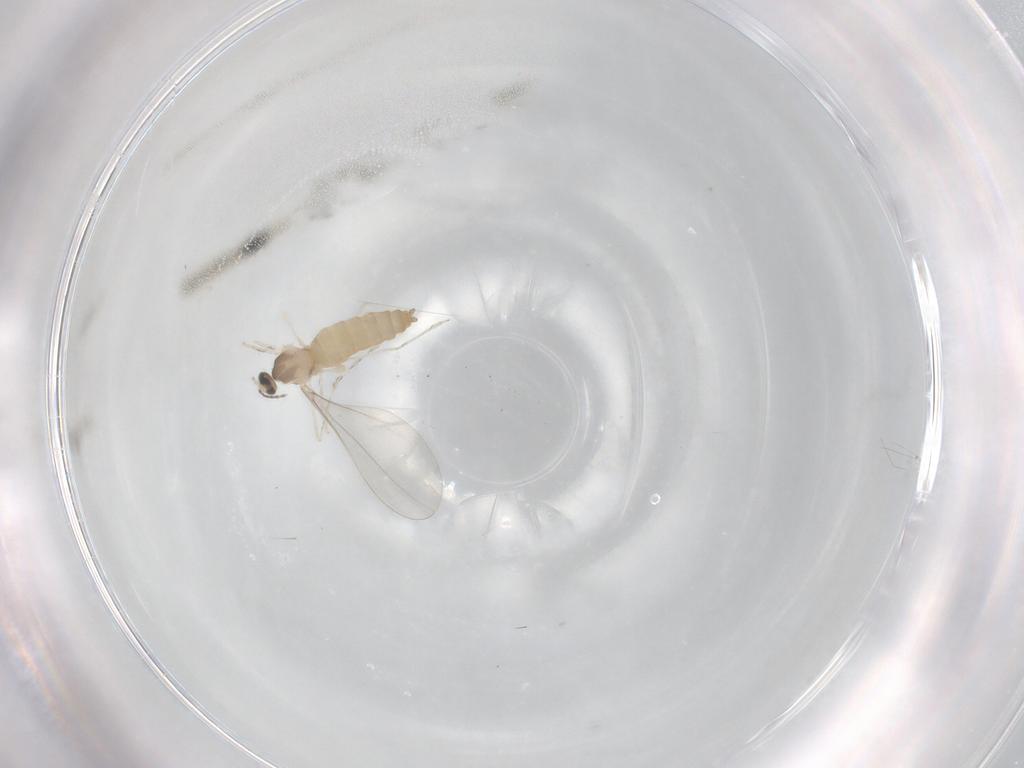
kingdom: Animalia
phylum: Arthropoda
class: Insecta
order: Diptera
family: Cecidomyiidae
